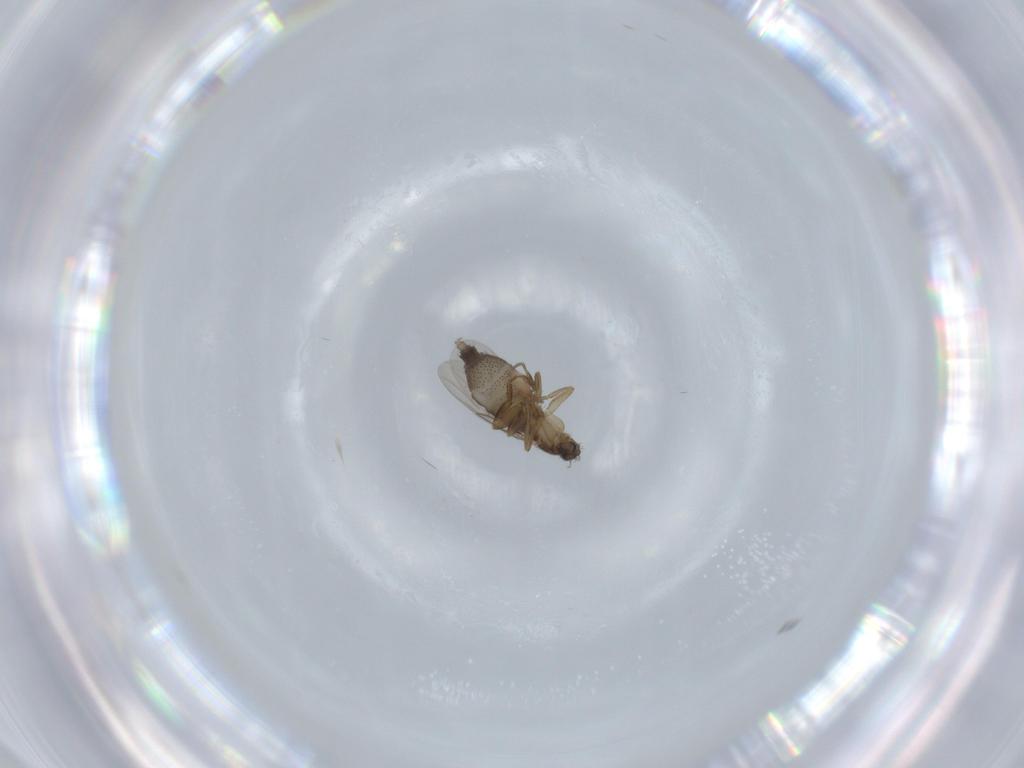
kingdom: Animalia
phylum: Arthropoda
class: Insecta
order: Diptera
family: Phoridae
